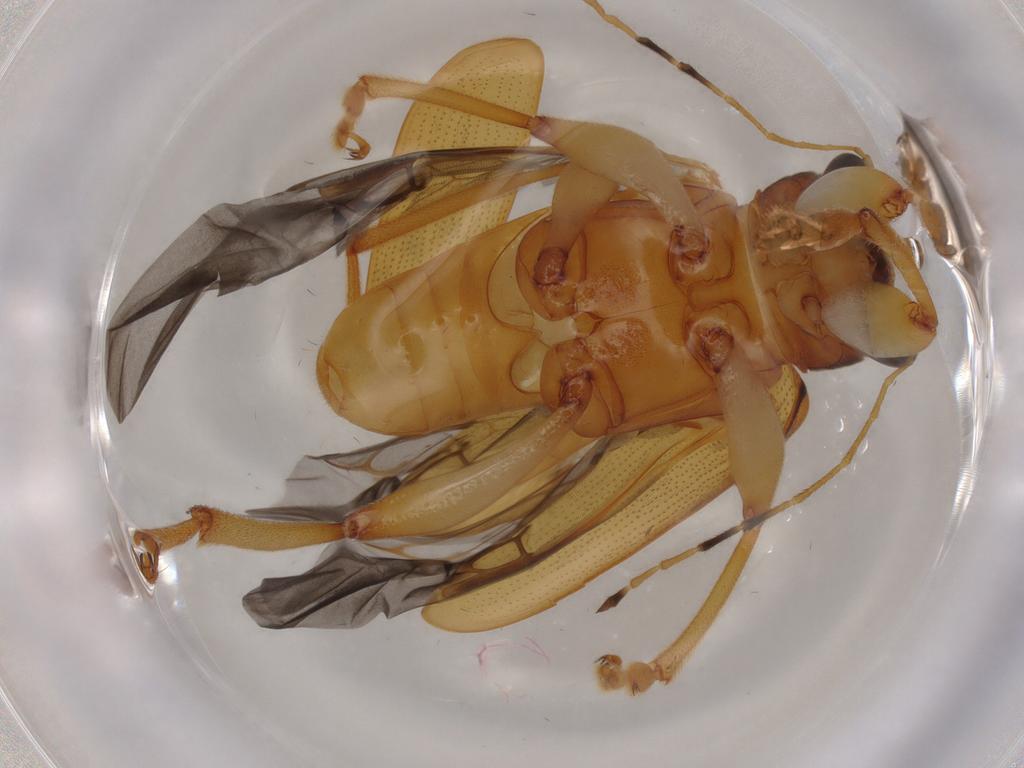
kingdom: Animalia
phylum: Arthropoda
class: Insecta
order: Coleoptera
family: Chrysomelidae
